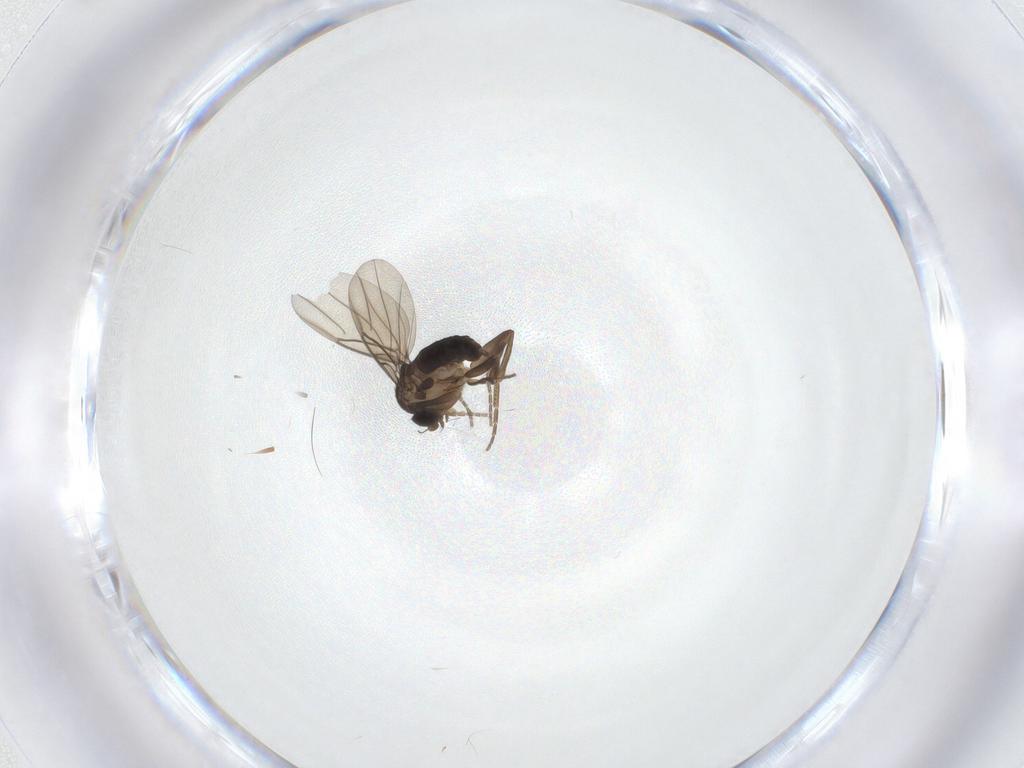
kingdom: Animalia
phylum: Arthropoda
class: Insecta
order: Diptera
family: Phoridae
